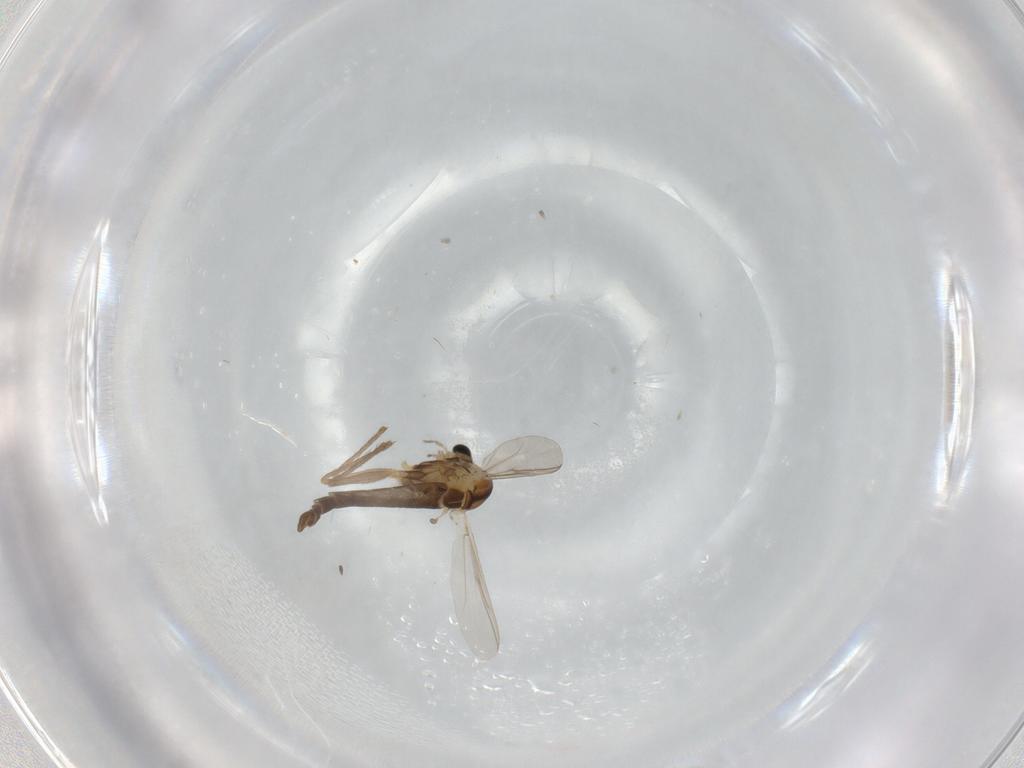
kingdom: Animalia
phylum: Arthropoda
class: Insecta
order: Diptera
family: Chironomidae
